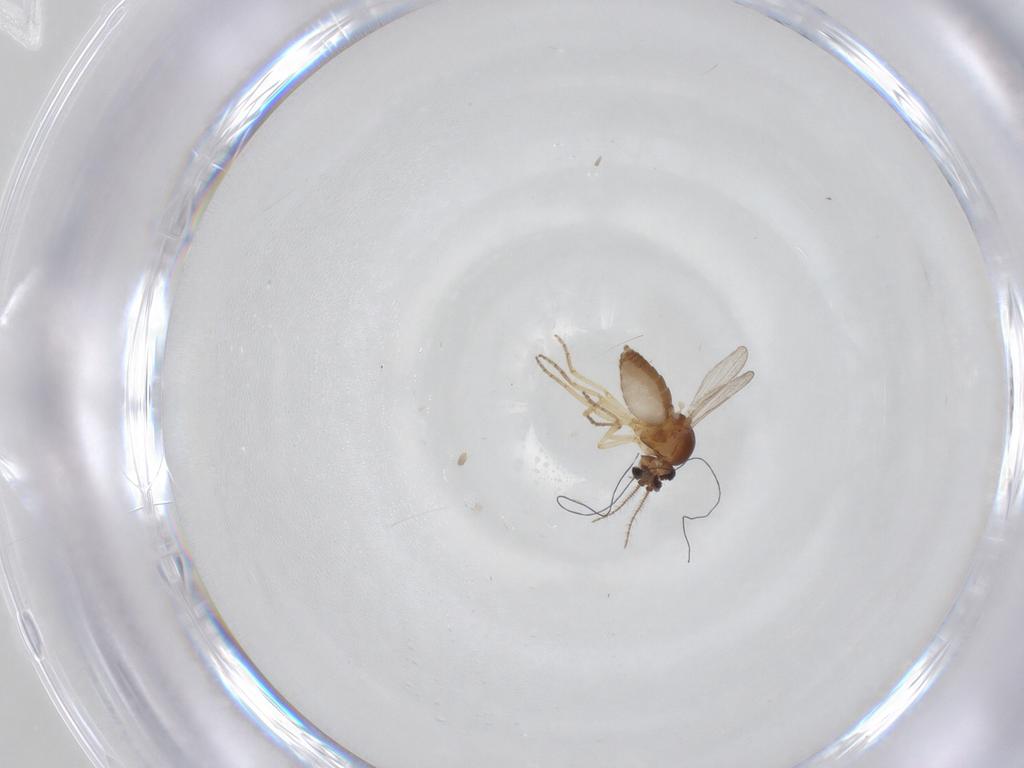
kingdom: Animalia
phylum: Arthropoda
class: Insecta
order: Diptera
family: Ceratopogonidae
